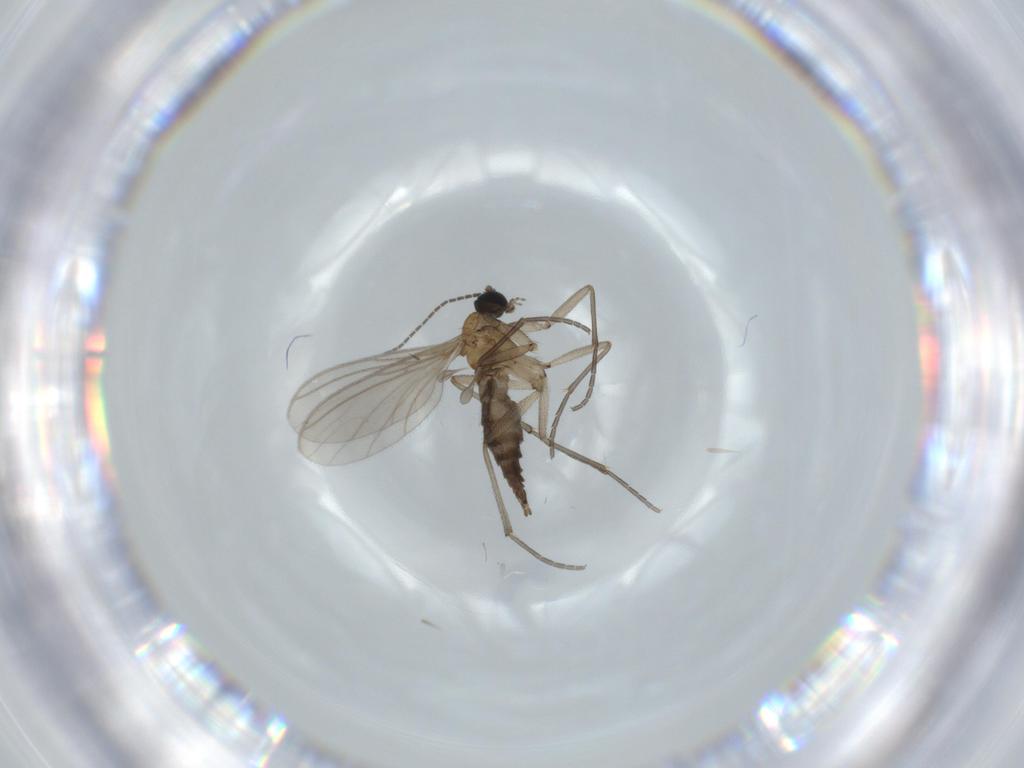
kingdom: Animalia
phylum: Arthropoda
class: Insecta
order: Diptera
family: Sciaridae
